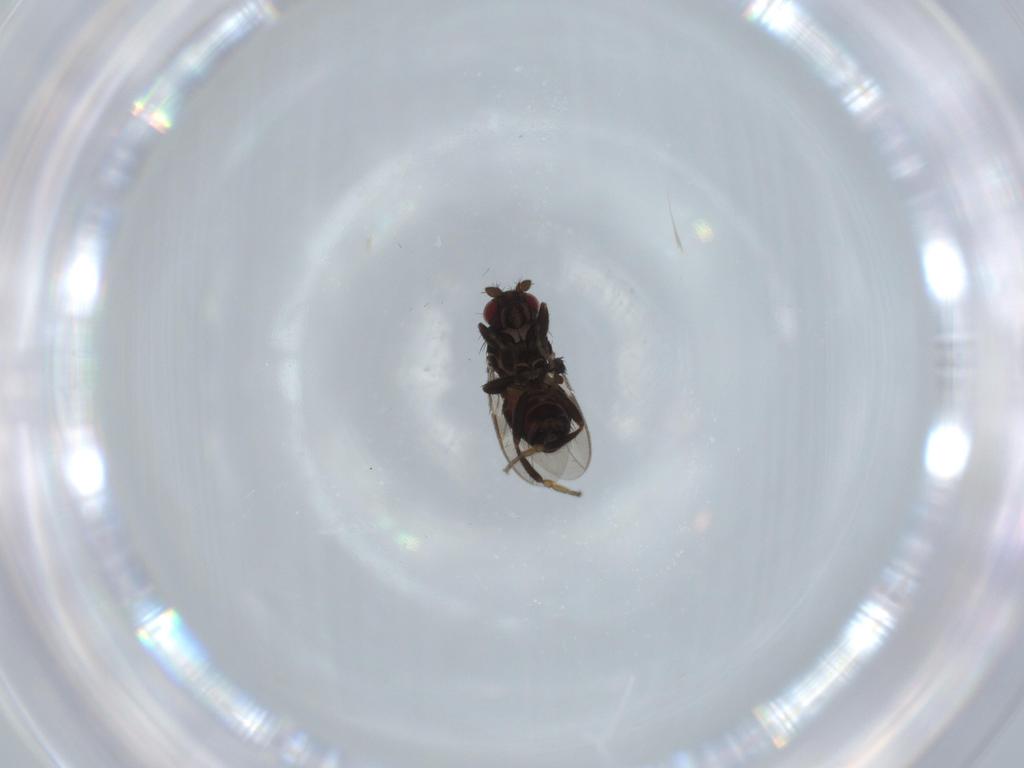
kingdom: Animalia
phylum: Arthropoda
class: Insecta
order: Diptera
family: Sphaeroceridae
